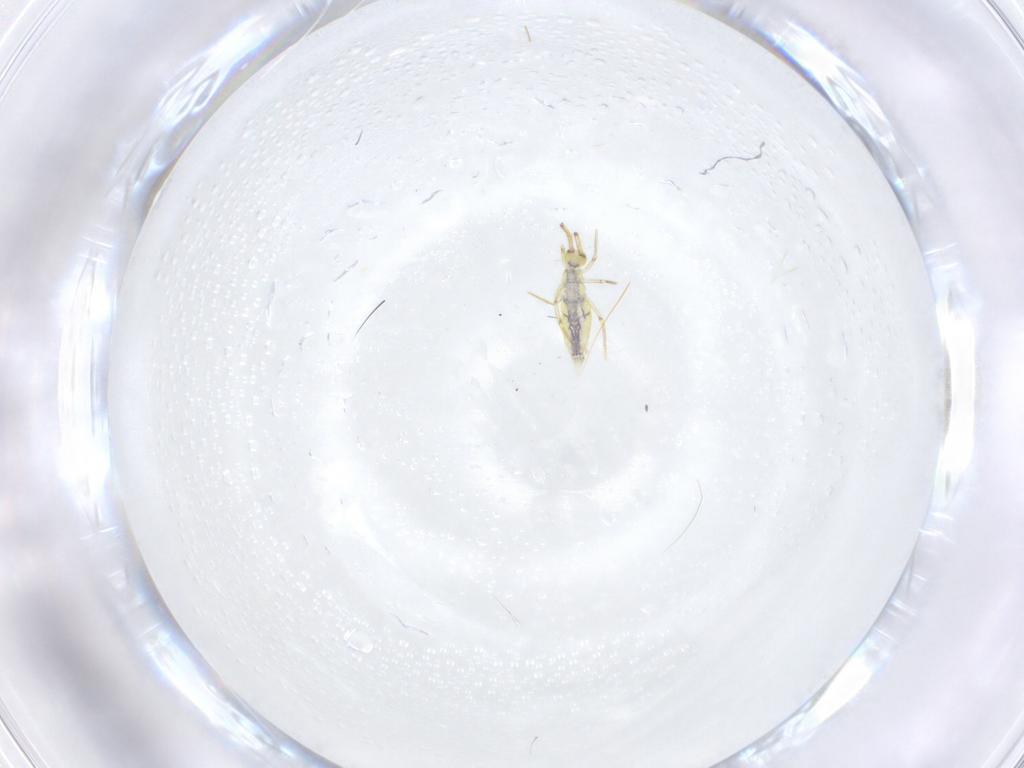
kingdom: Animalia
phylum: Arthropoda
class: Collembola
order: Entomobryomorpha
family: Entomobryidae
